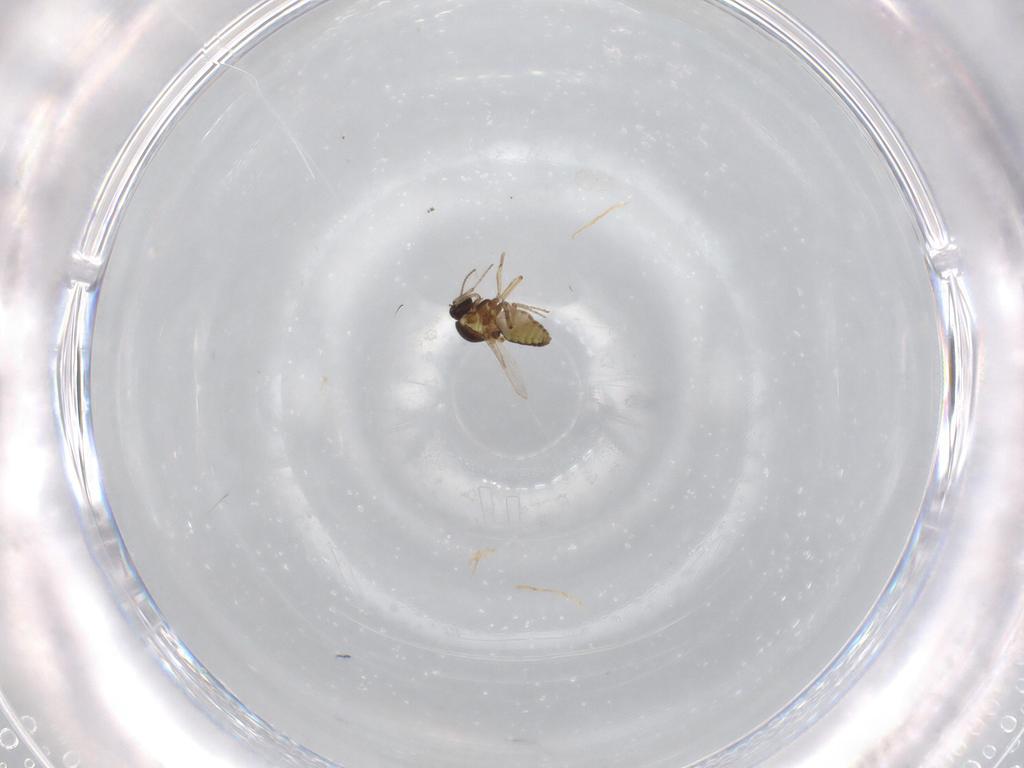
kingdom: Animalia
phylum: Arthropoda
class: Insecta
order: Diptera
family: Ceratopogonidae
